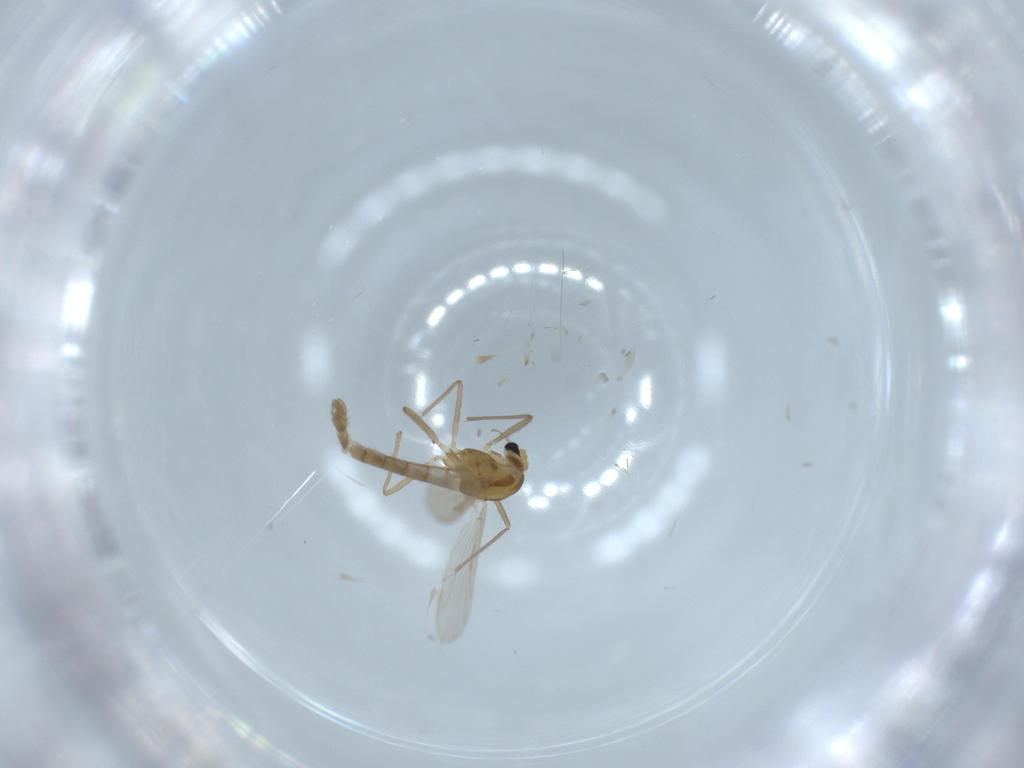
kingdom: Animalia
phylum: Arthropoda
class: Insecta
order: Diptera
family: Chironomidae
